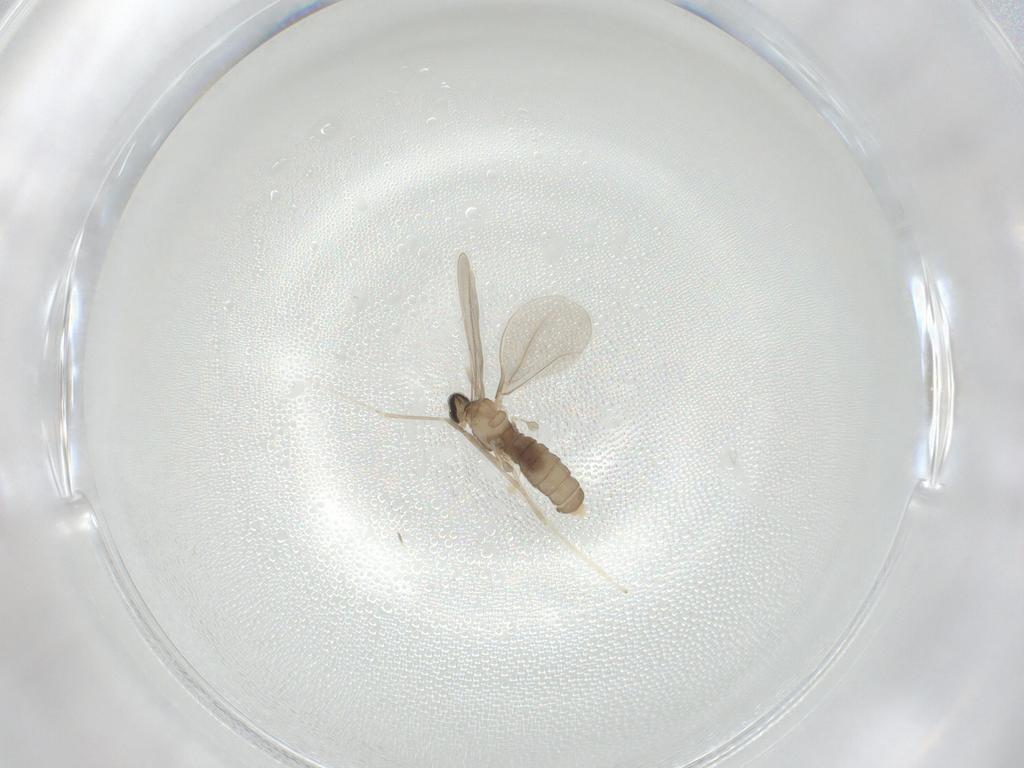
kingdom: Animalia
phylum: Arthropoda
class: Insecta
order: Diptera
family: Cecidomyiidae
